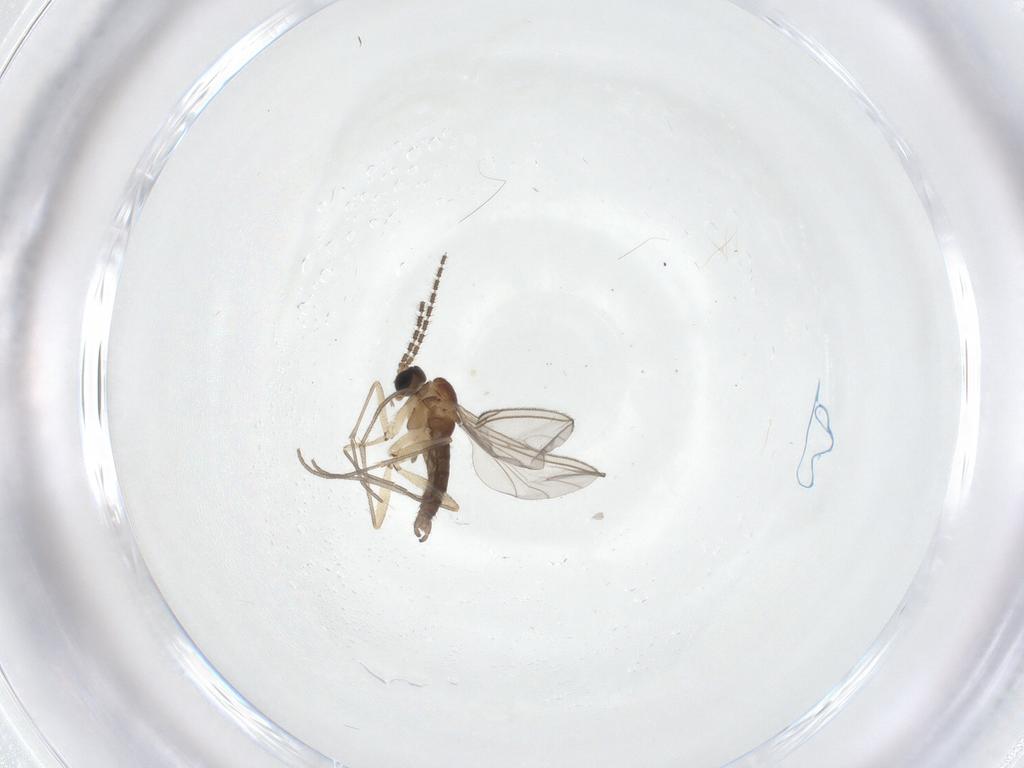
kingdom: Animalia
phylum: Arthropoda
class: Insecta
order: Diptera
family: Sciaridae
